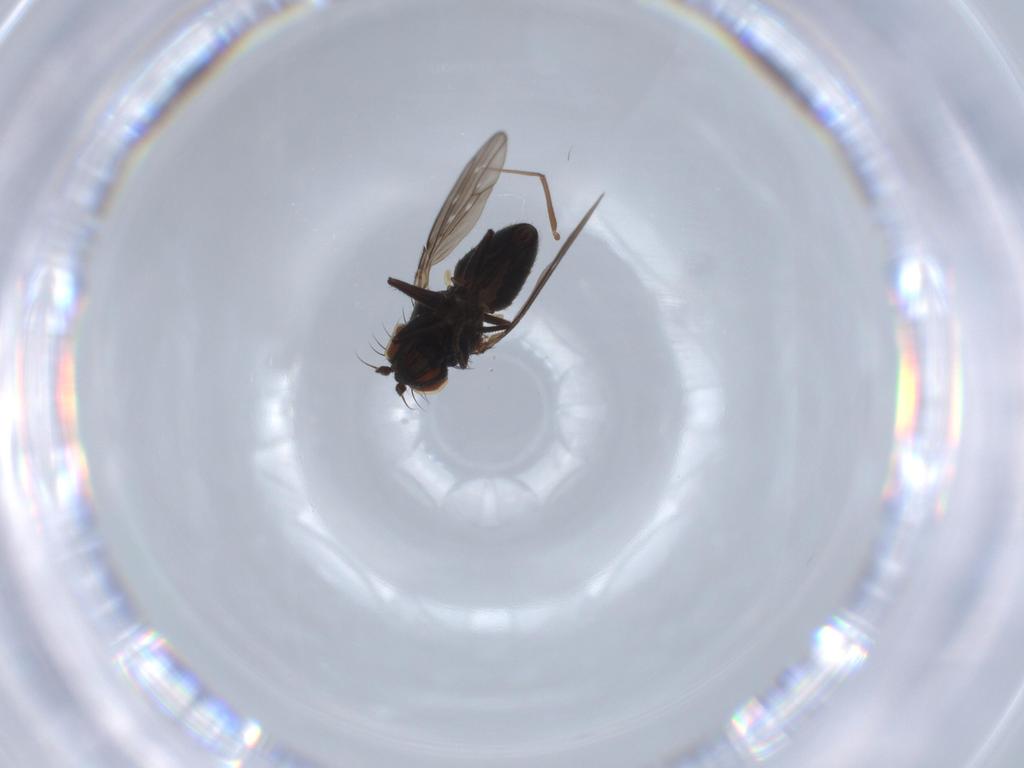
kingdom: Animalia
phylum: Arthropoda
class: Insecta
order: Diptera
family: Ephydridae
